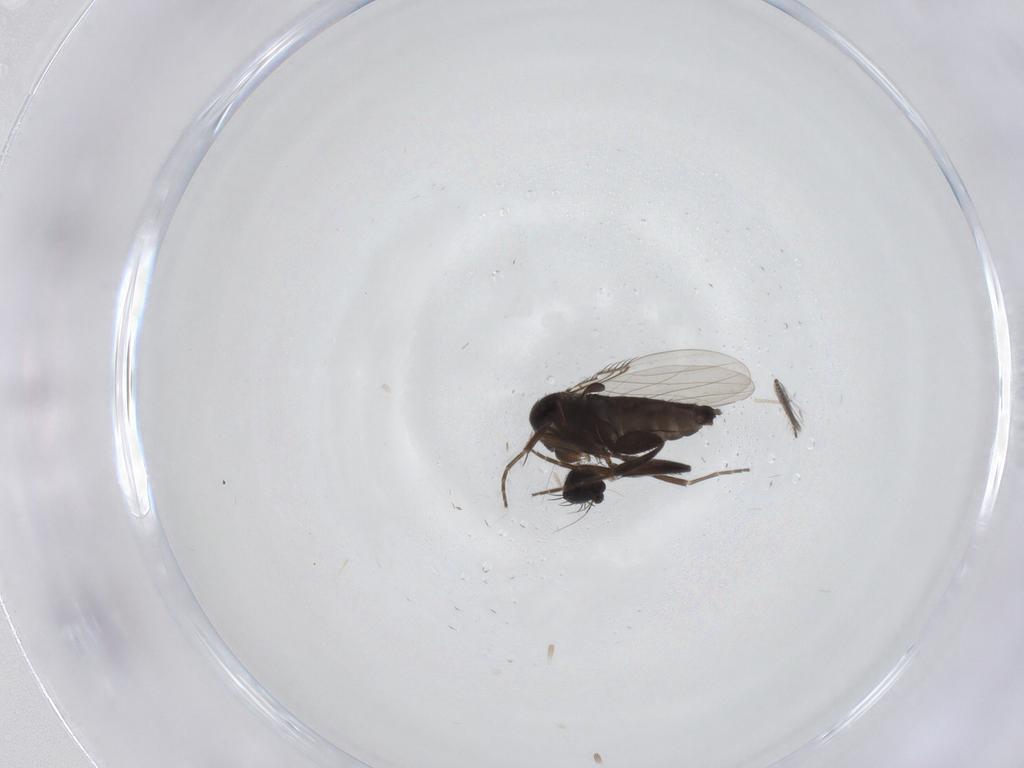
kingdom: Animalia
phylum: Arthropoda
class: Insecta
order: Diptera
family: Phoridae
